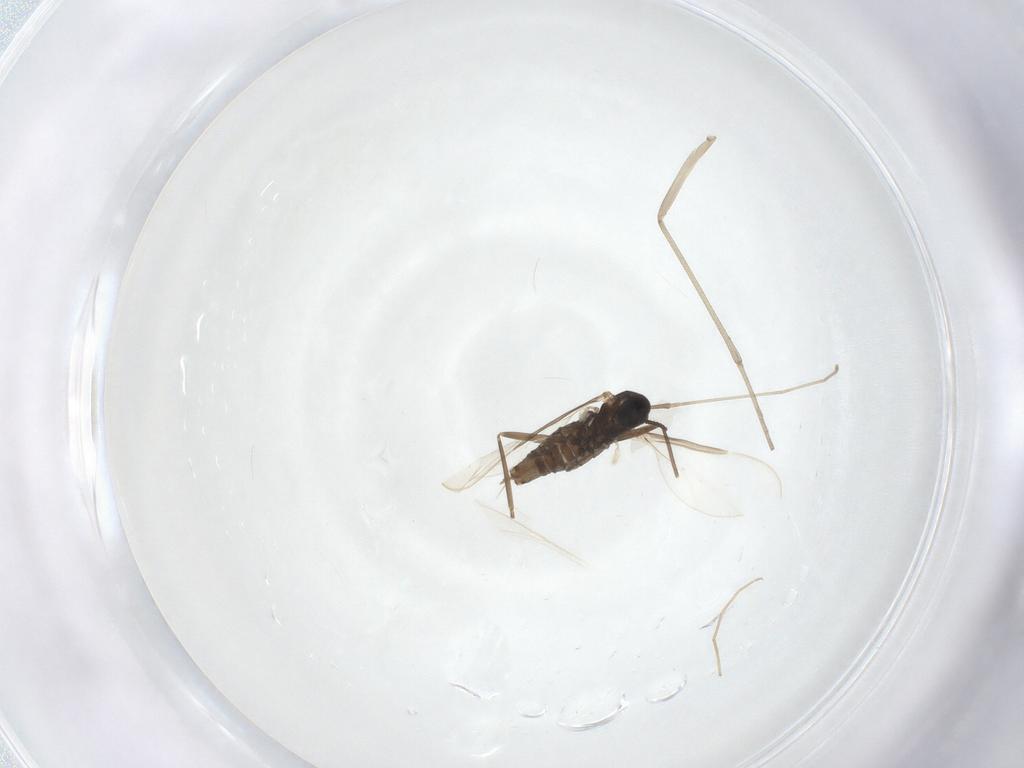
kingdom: Animalia
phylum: Arthropoda
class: Insecta
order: Diptera
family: Cecidomyiidae
